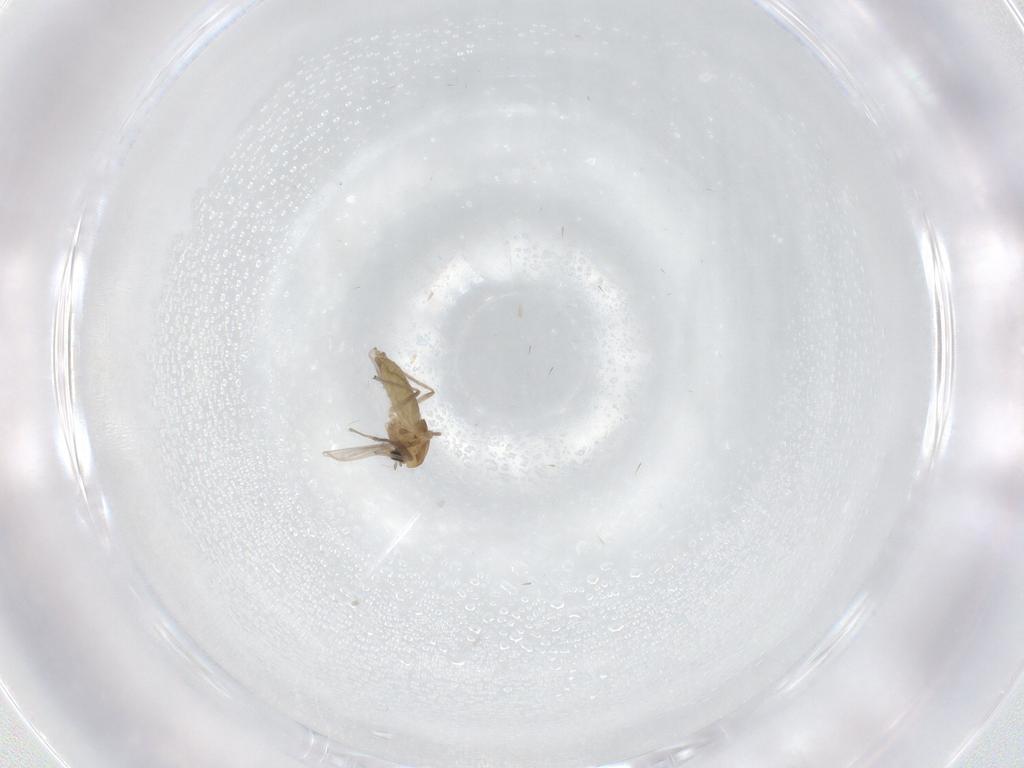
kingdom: Animalia
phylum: Arthropoda
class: Insecta
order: Diptera
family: Chironomidae
